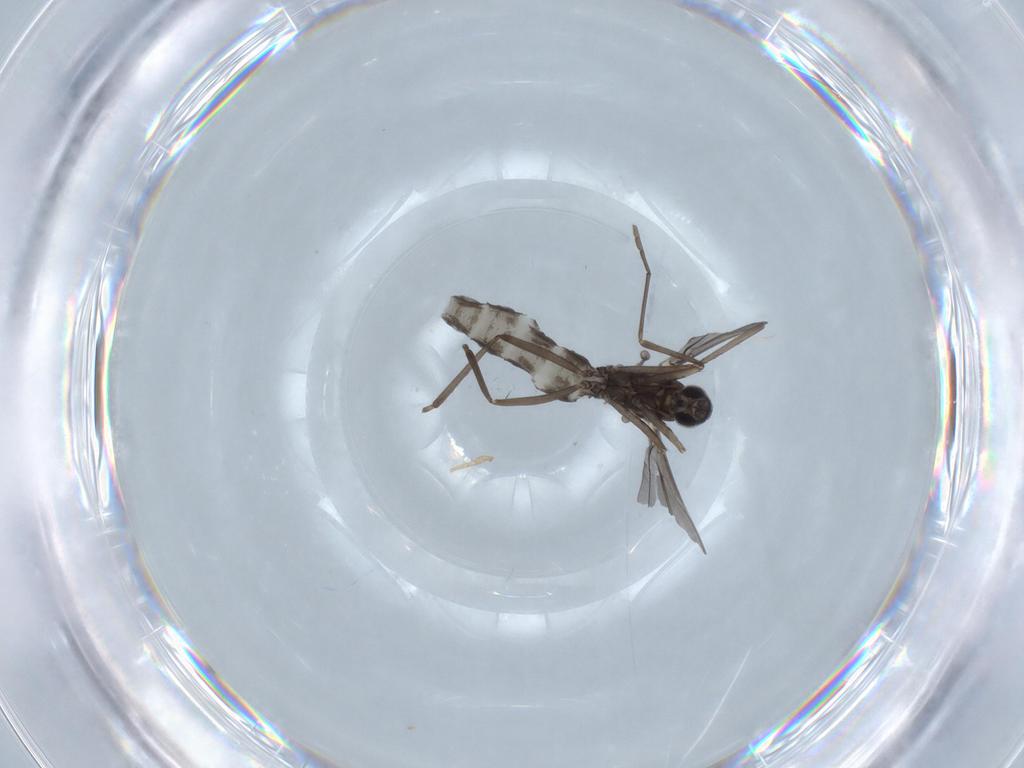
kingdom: Animalia
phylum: Arthropoda
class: Insecta
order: Diptera
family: Cecidomyiidae
